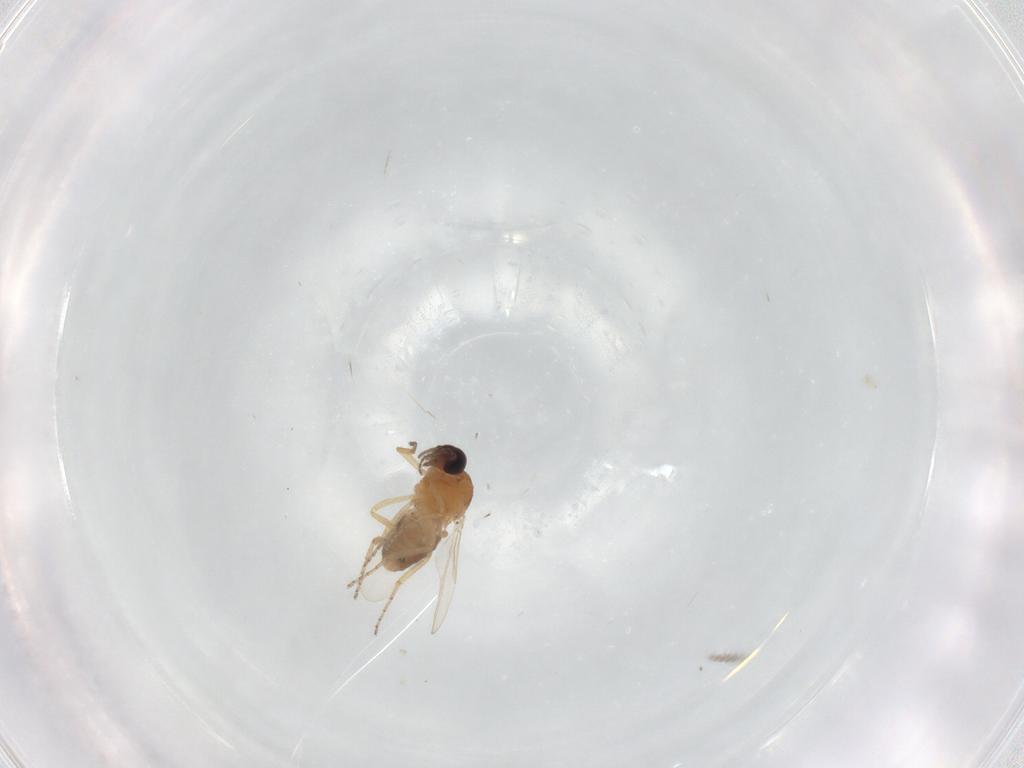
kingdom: Animalia
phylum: Arthropoda
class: Insecta
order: Diptera
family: Ceratopogonidae
